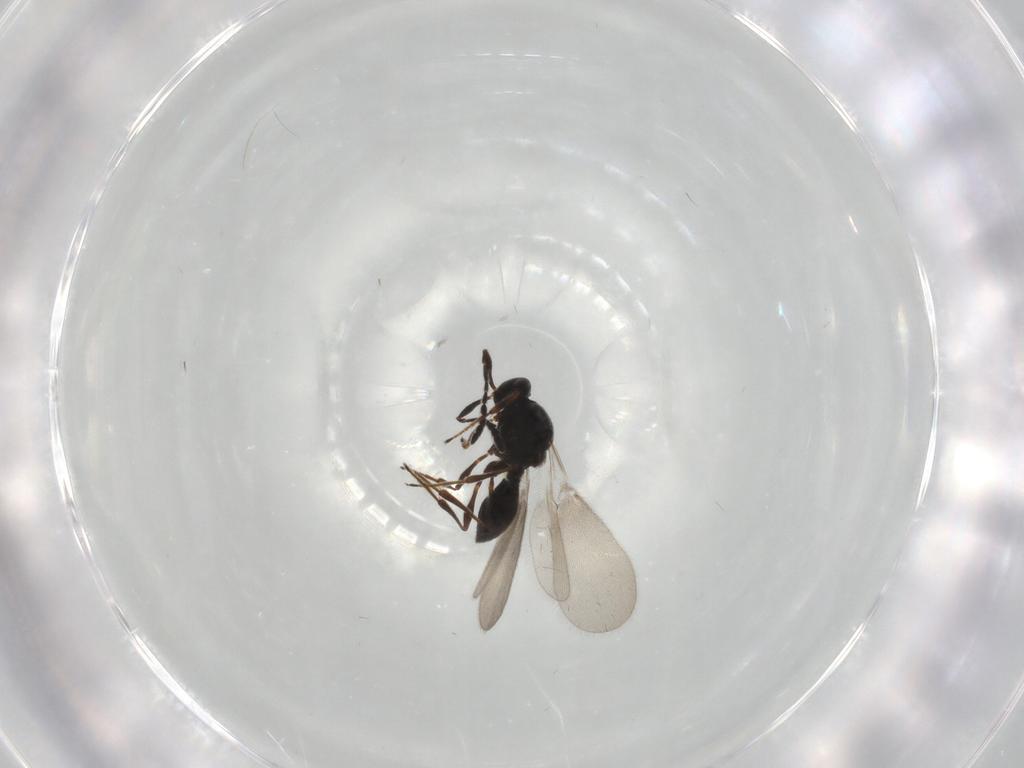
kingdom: Animalia
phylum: Arthropoda
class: Insecta
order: Hymenoptera
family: Platygastridae
